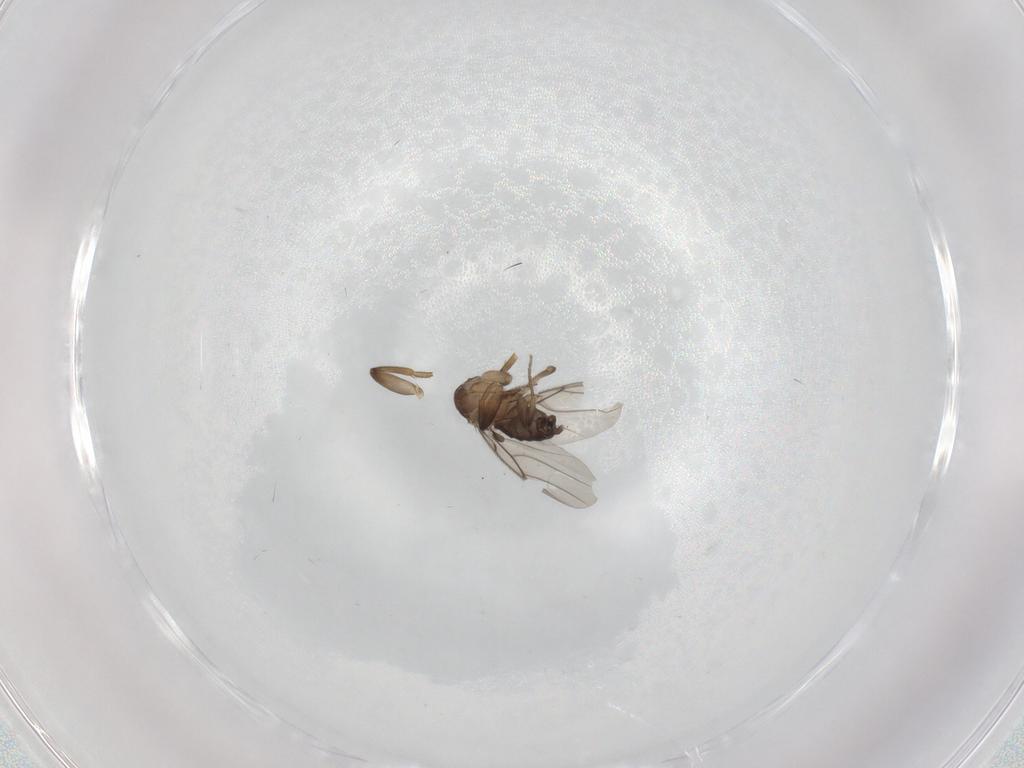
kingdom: Animalia
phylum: Arthropoda
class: Insecta
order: Diptera
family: Phoridae
